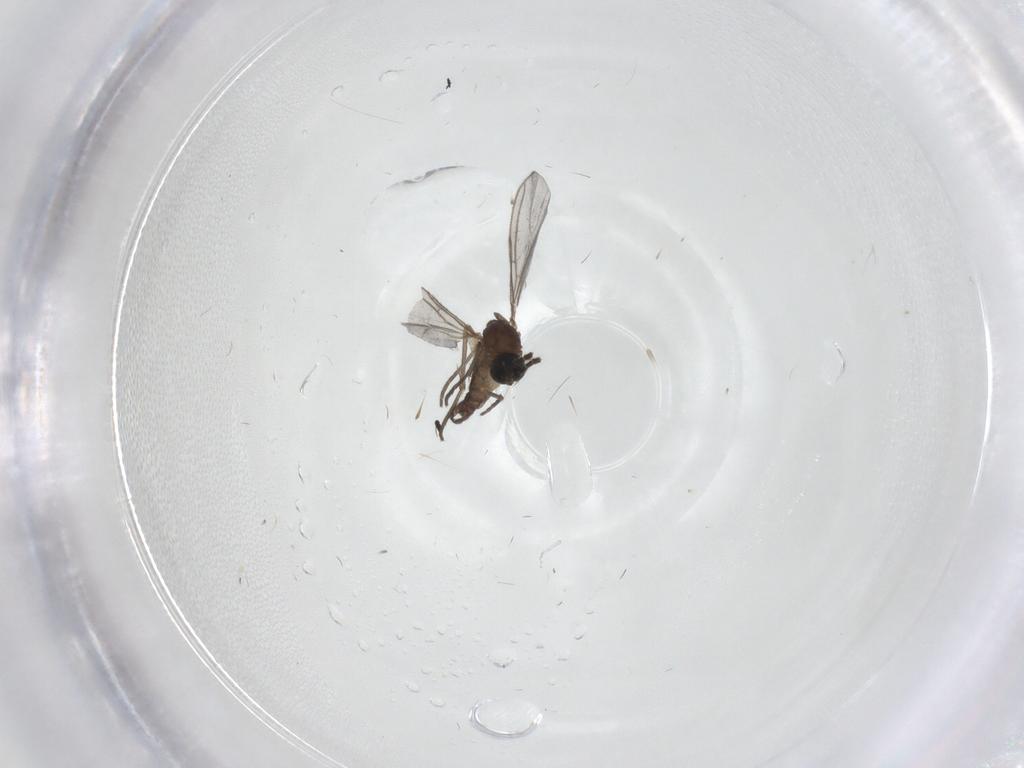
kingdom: Animalia
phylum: Arthropoda
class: Insecta
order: Diptera
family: Sciaridae
